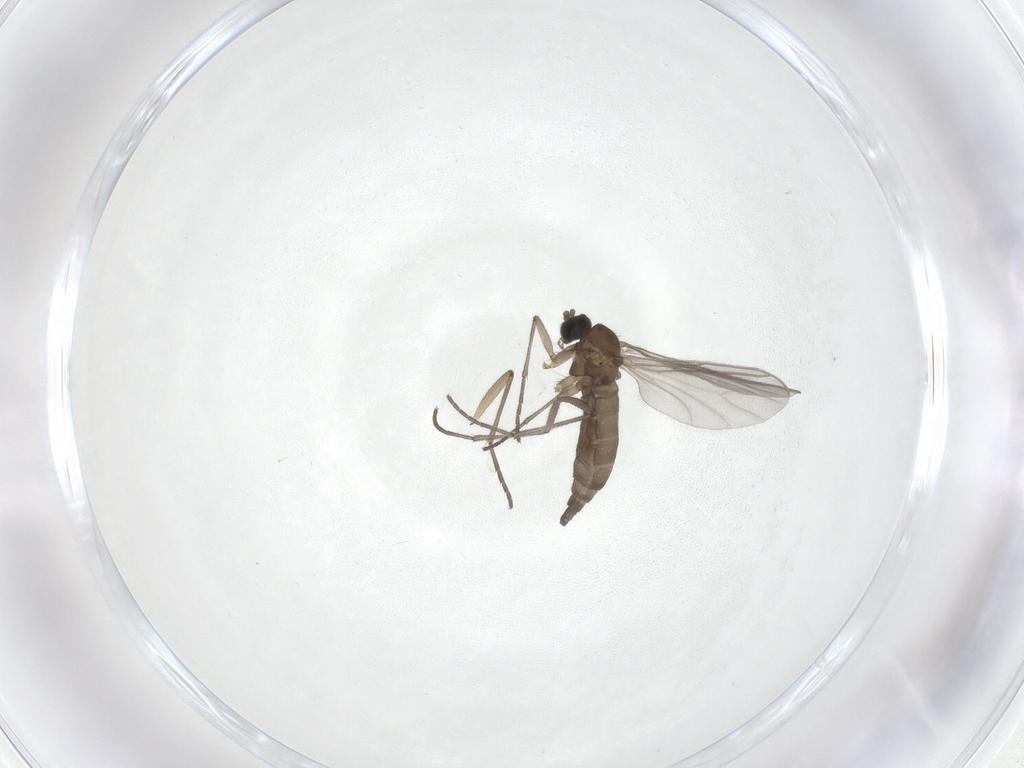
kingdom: Animalia
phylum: Arthropoda
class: Insecta
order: Diptera
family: Sciaridae
